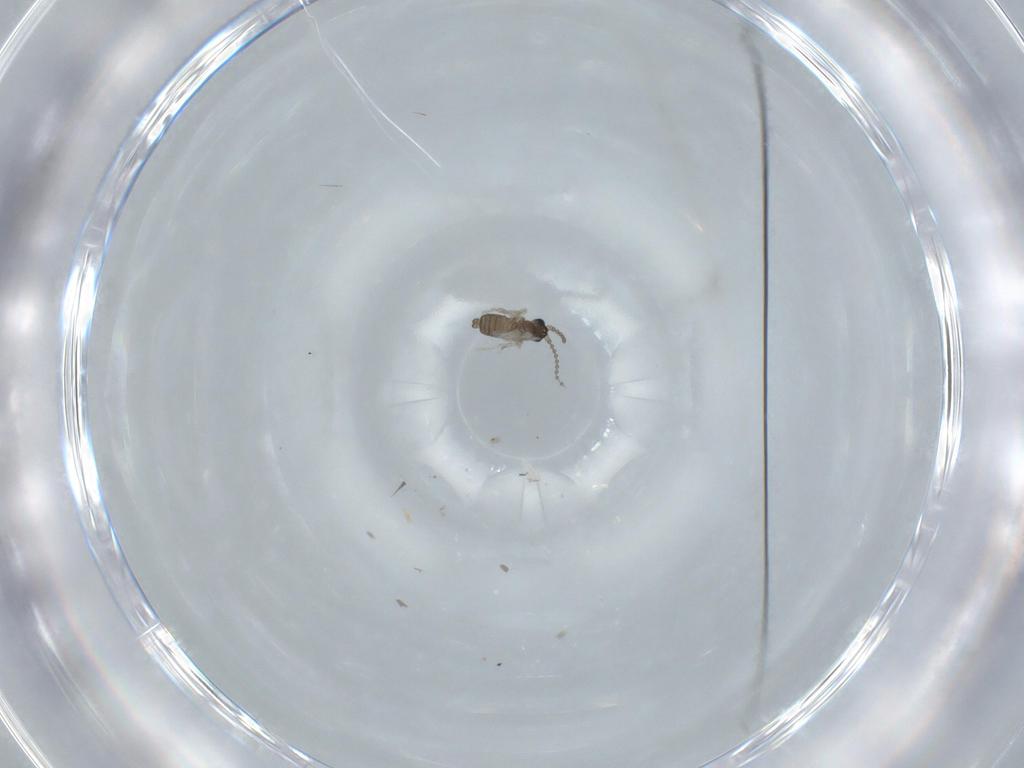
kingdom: Animalia
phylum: Arthropoda
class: Insecta
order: Diptera
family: Cecidomyiidae
